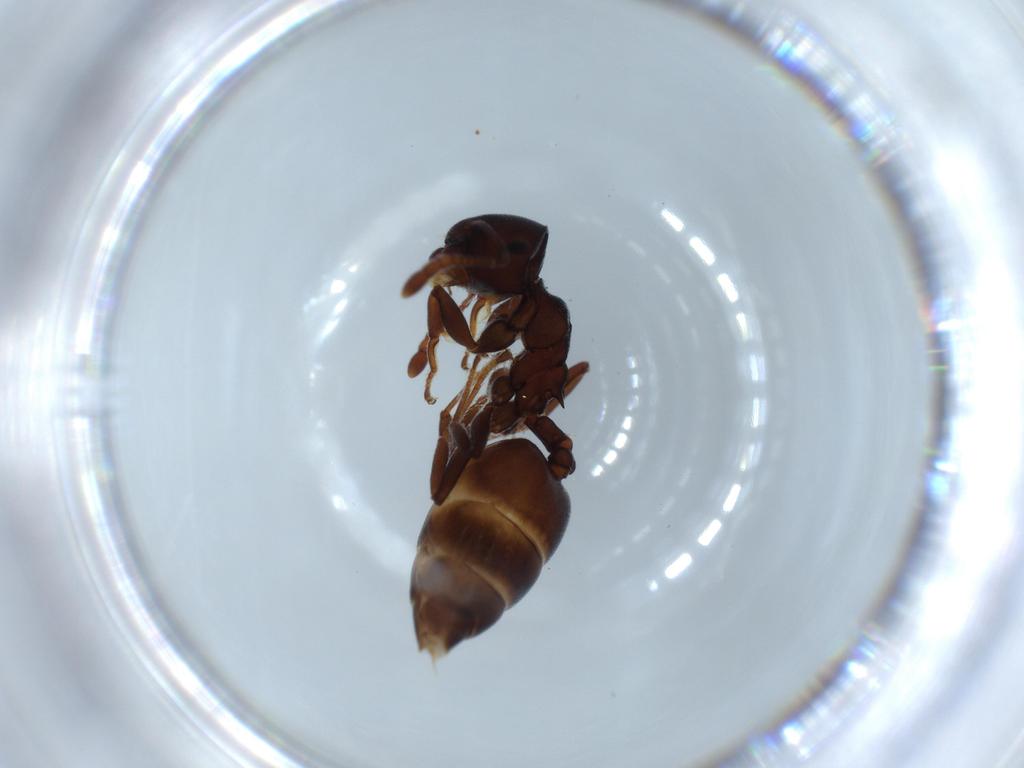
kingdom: Animalia
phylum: Arthropoda
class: Insecta
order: Hymenoptera
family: Formicidae
